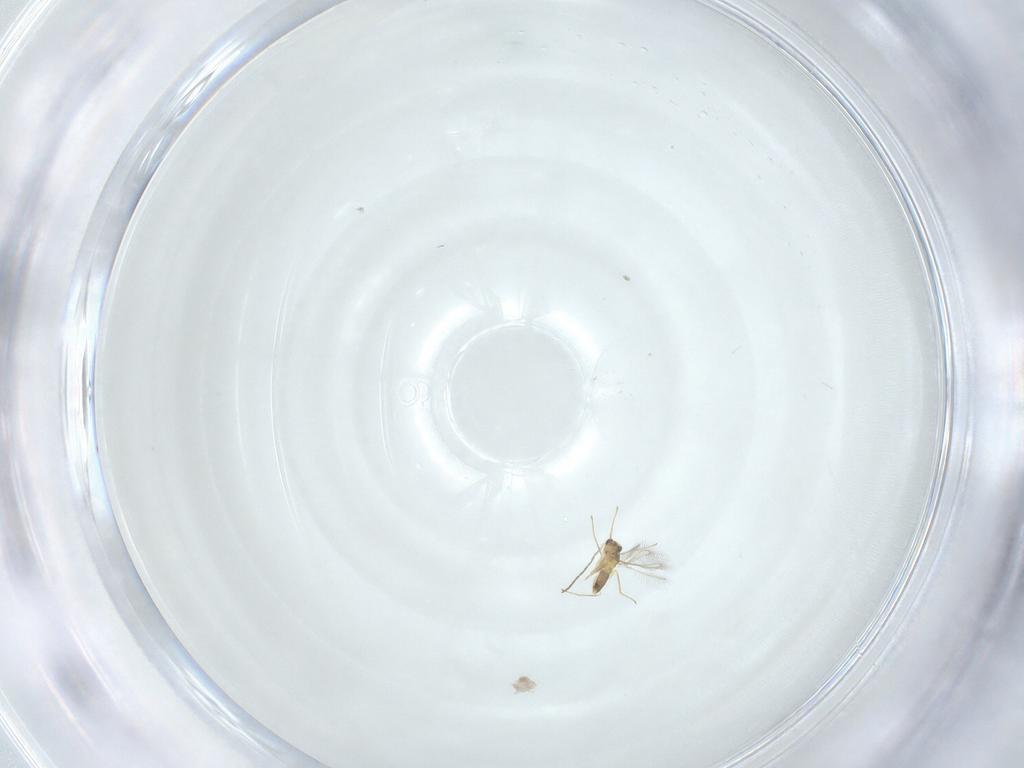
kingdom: Animalia
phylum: Arthropoda
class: Insecta
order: Hymenoptera
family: Mymaridae
